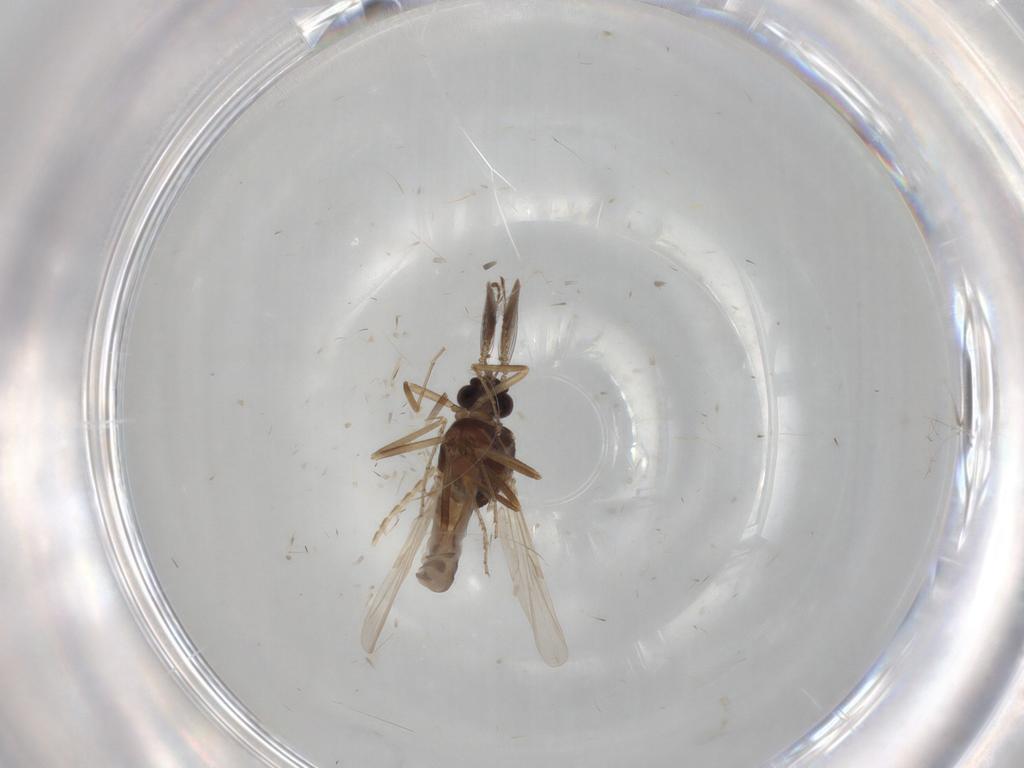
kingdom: Animalia
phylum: Arthropoda
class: Insecta
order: Diptera
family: Ceratopogonidae
